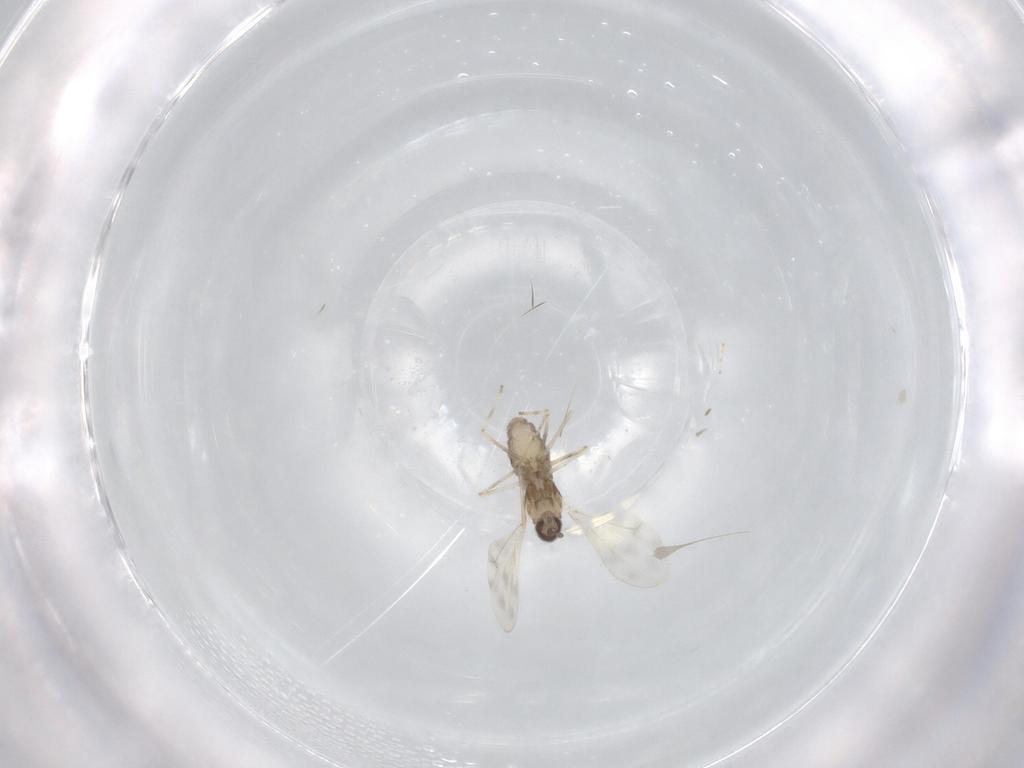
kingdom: Animalia
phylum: Arthropoda
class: Insecta
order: Diptera
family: Cecidomyiidae
